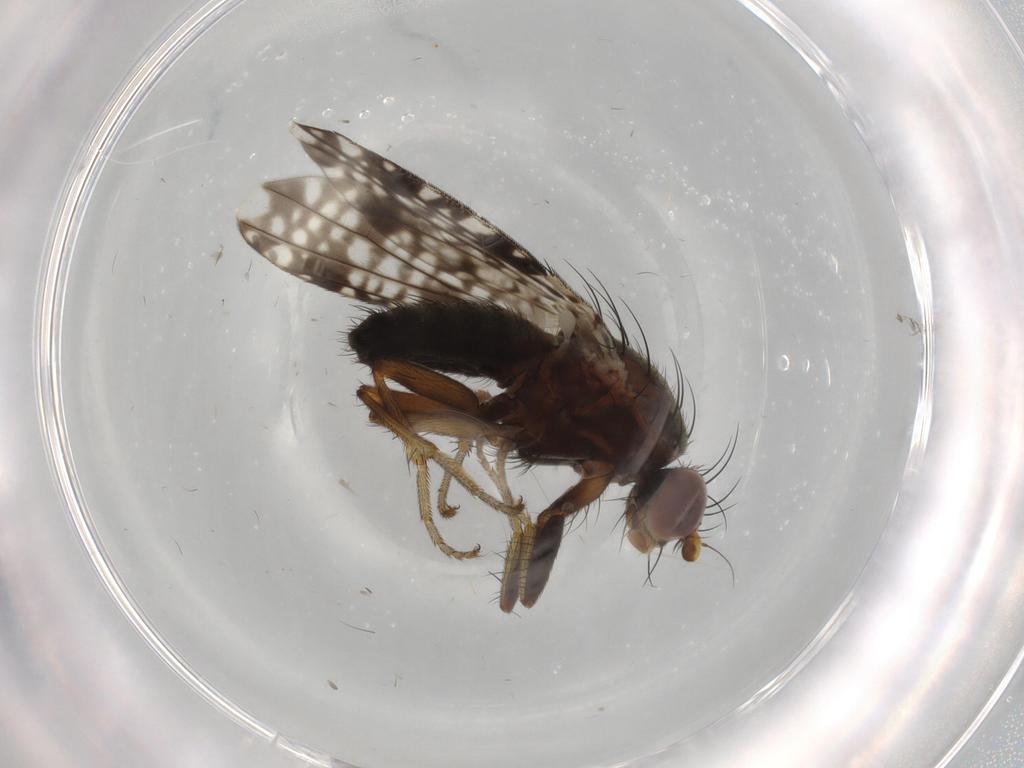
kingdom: Animalia
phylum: Arthropoda
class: Insecta
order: Diptera
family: Tephritidae
